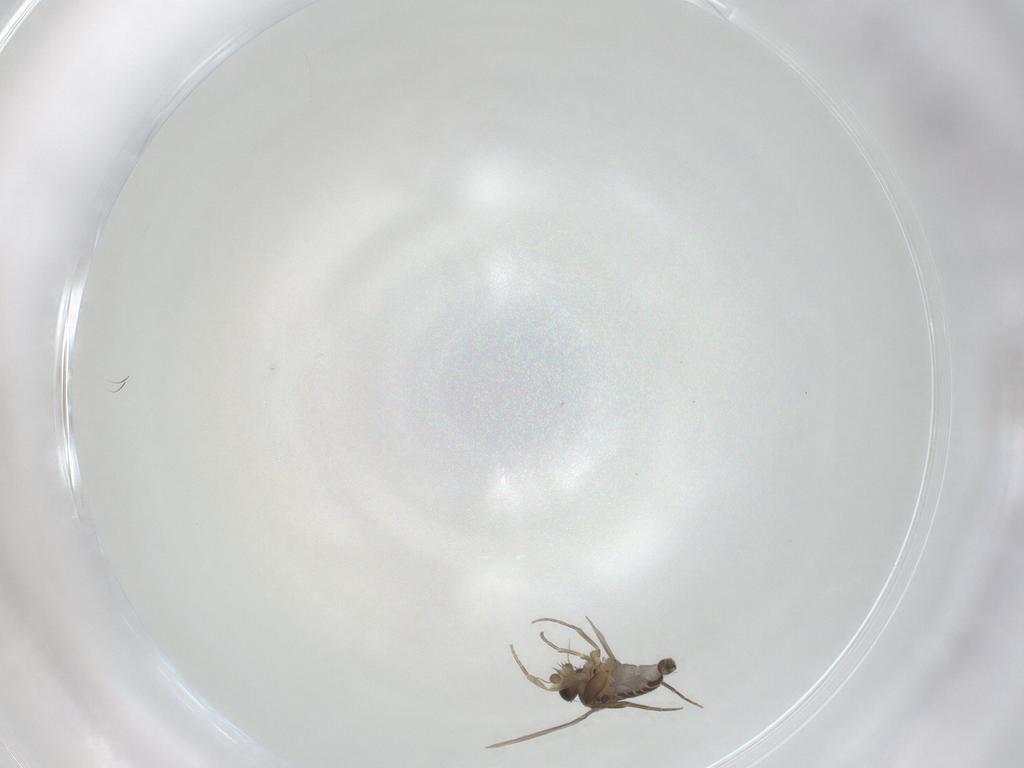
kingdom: Animalia
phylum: Arthropoda
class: Insecta
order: Diptera
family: Phoridae
